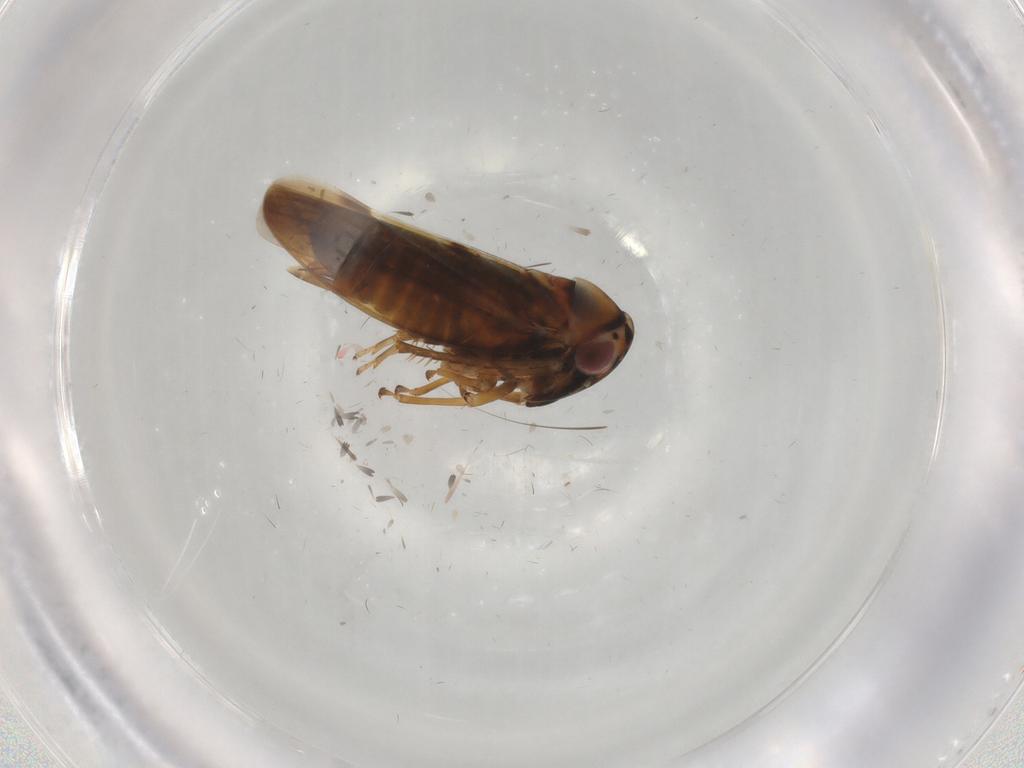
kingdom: Animalia
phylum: Arthropoda
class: Insecta
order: Hemiptera
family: Cicadellidae
